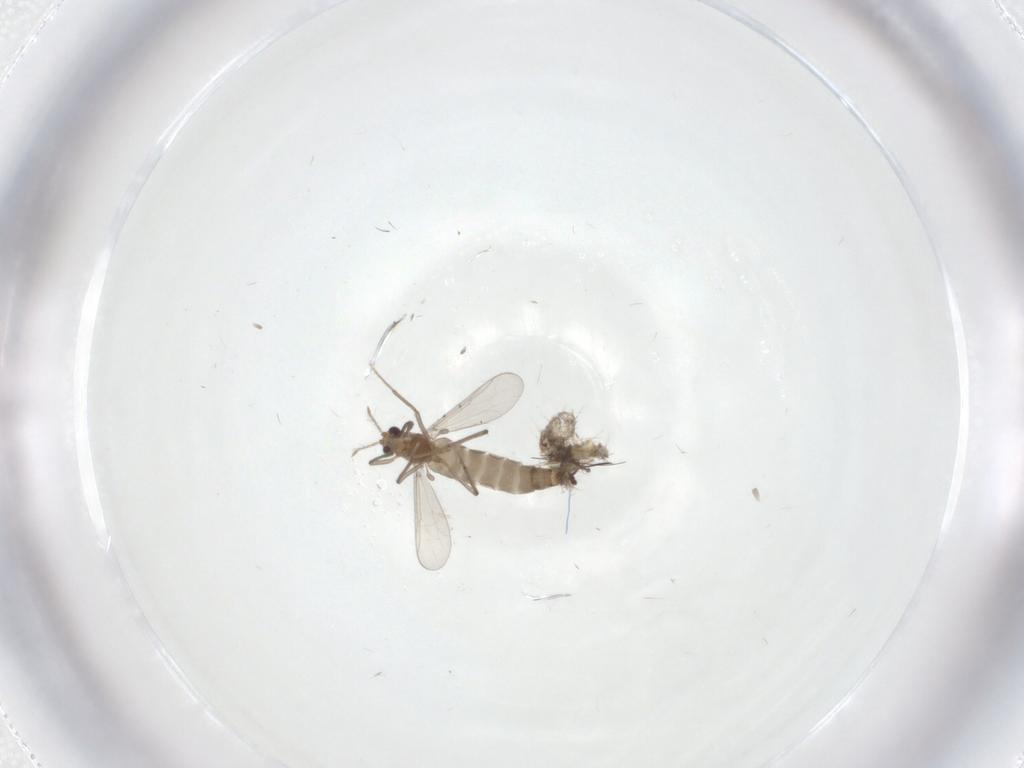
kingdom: Animalia
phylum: Arthropoda
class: Insecta
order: Diptera
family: Chironomidae
